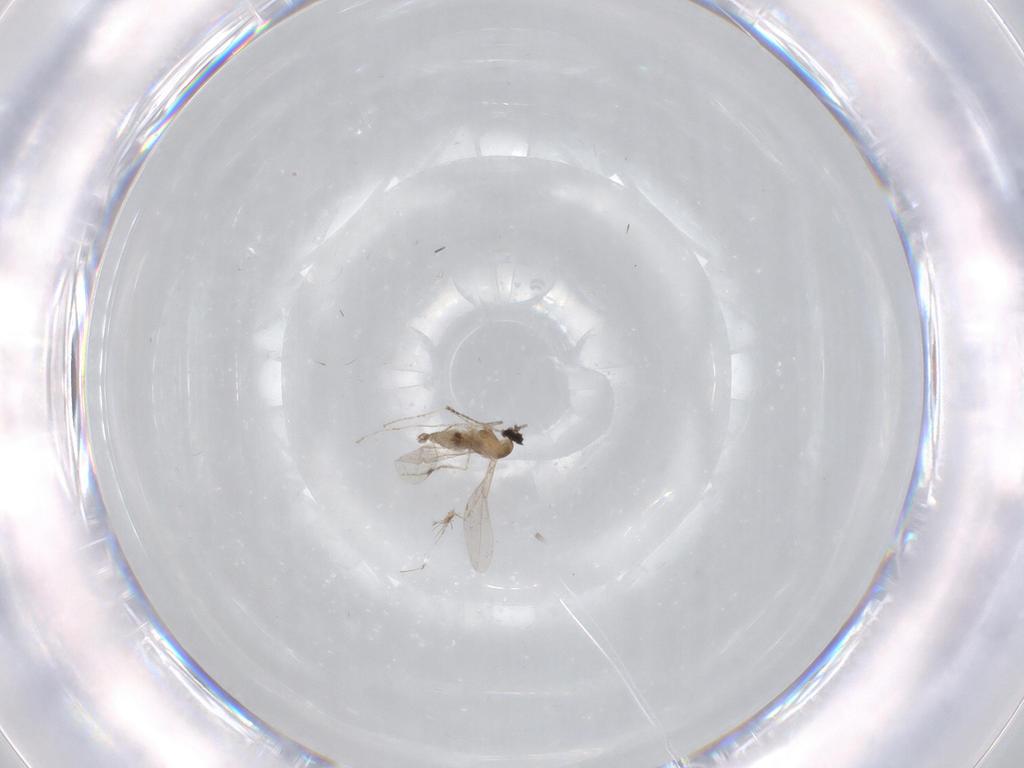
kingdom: Animalia
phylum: Arthropoda
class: Insecta
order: Diptera
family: Cecidomyiidae
